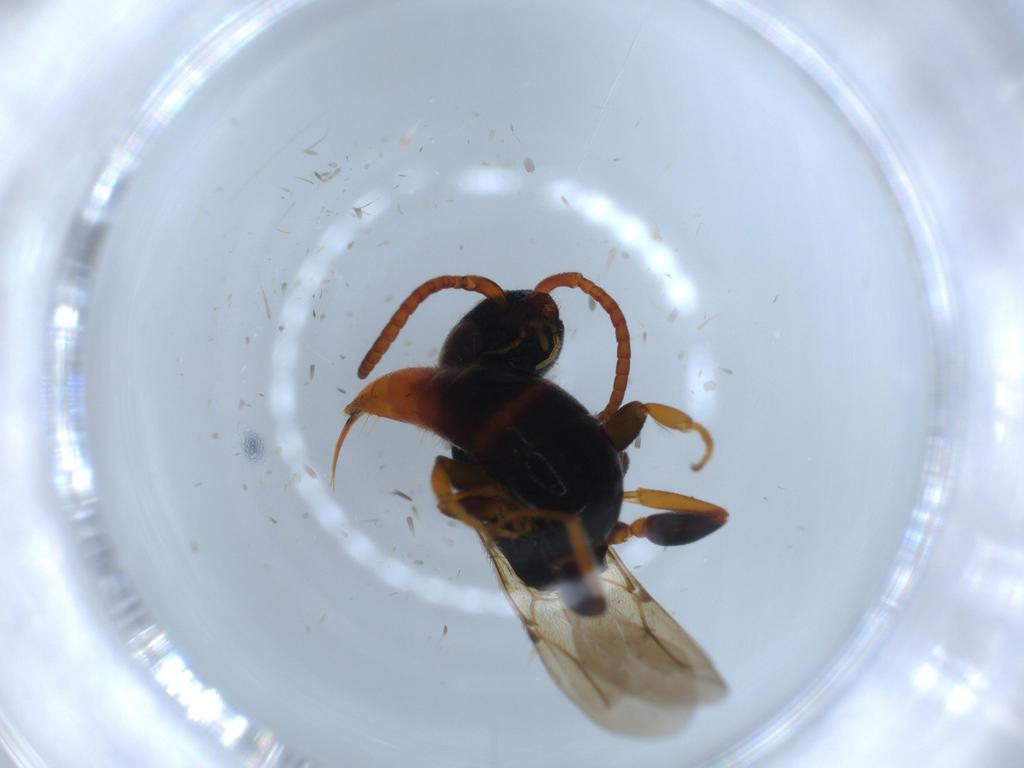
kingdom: Animalia
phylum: Arthropoda
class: Insecta
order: Hymenoptera
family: Bethylidae
